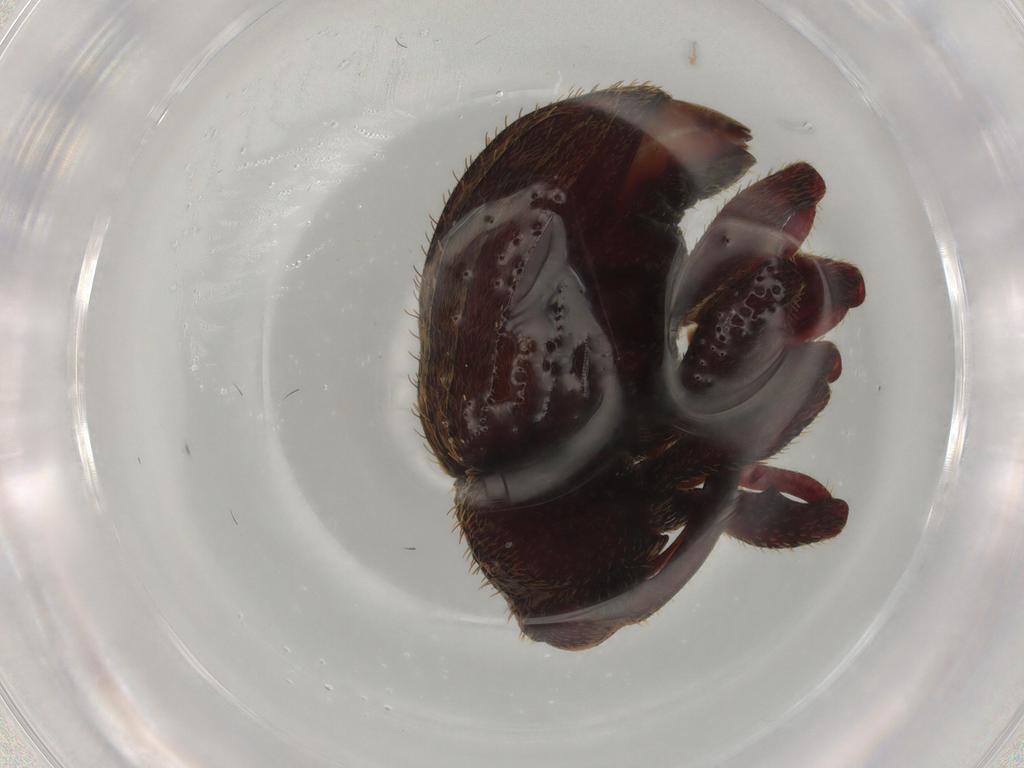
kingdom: Animalia
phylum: Arthropoda
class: Insecta
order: Coleoptera
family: Curculionidae
